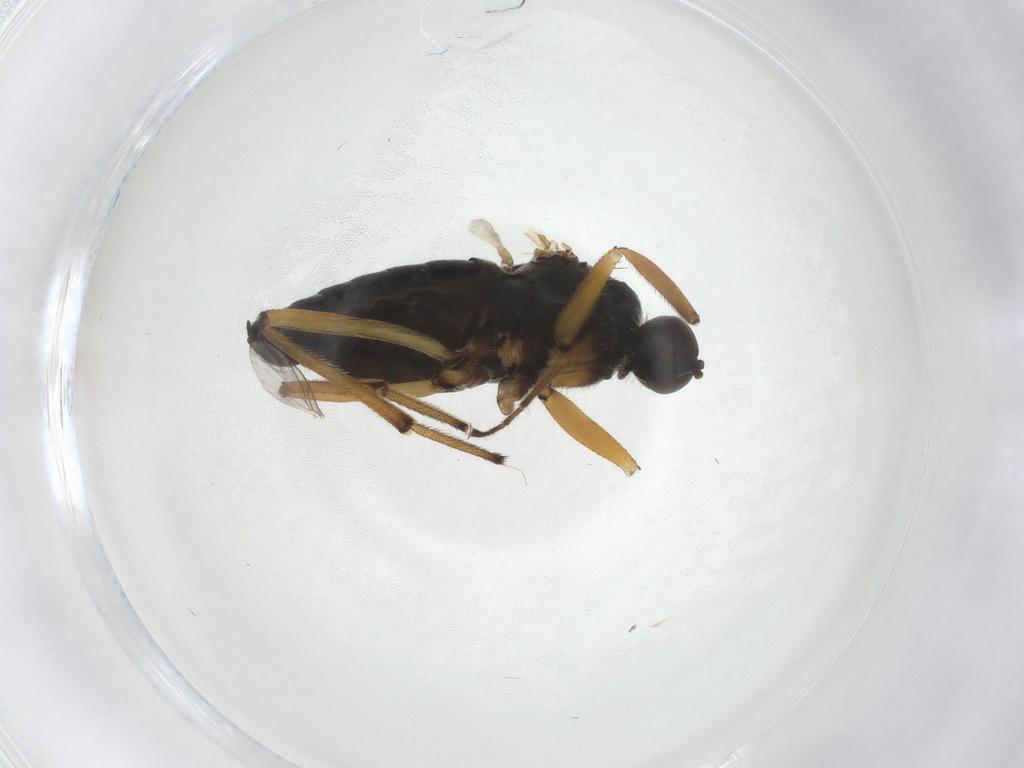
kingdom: Animalia
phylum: Arthropoda
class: Insecta
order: Diptera
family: Hybotidae
